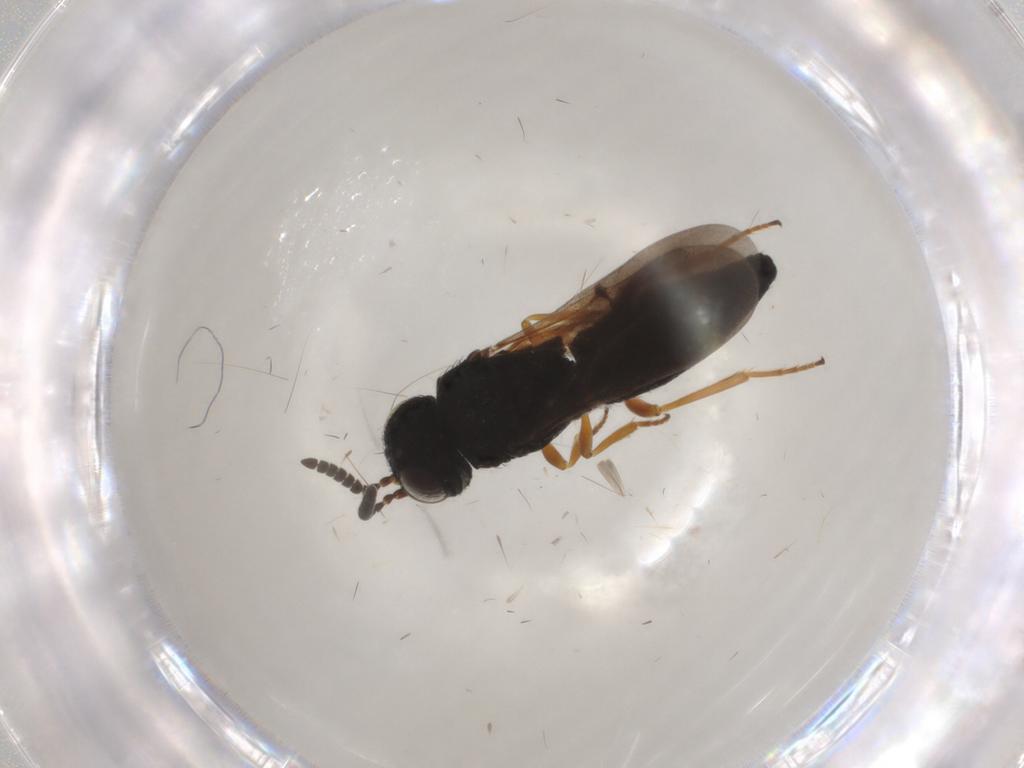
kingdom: Animalia
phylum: Arthropoda
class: Insecta
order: Hymenoptera
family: Scelionidae
